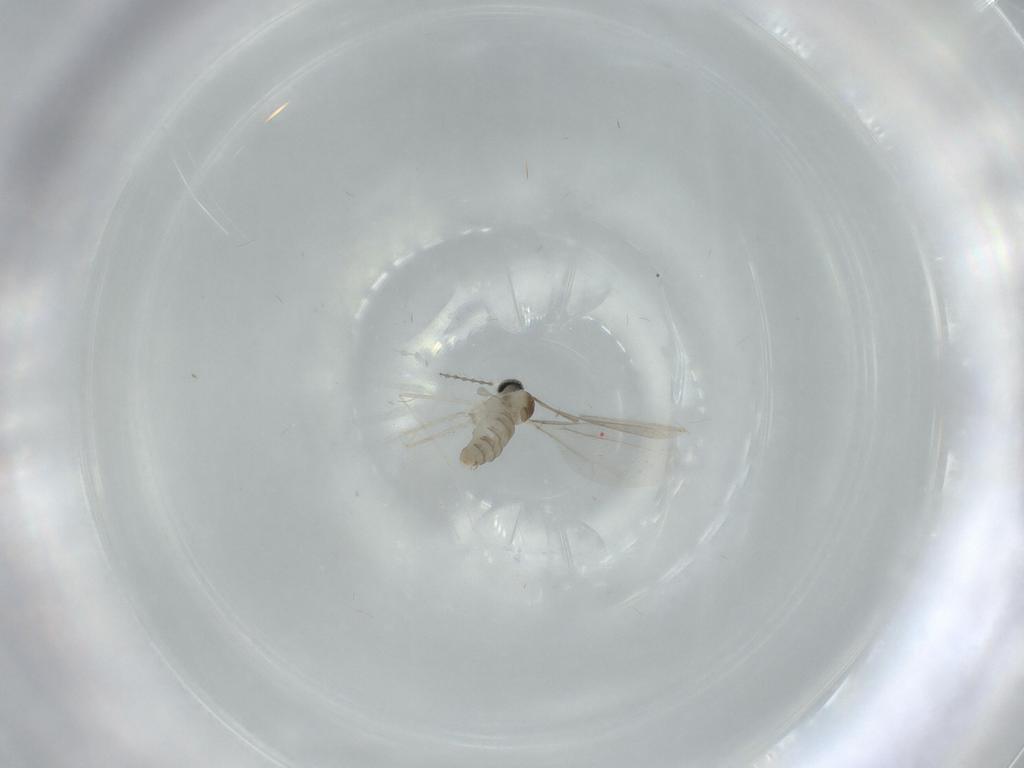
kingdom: Animalia
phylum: Arthropoda
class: Insecta
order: Diptera
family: Cecidomyiidae
